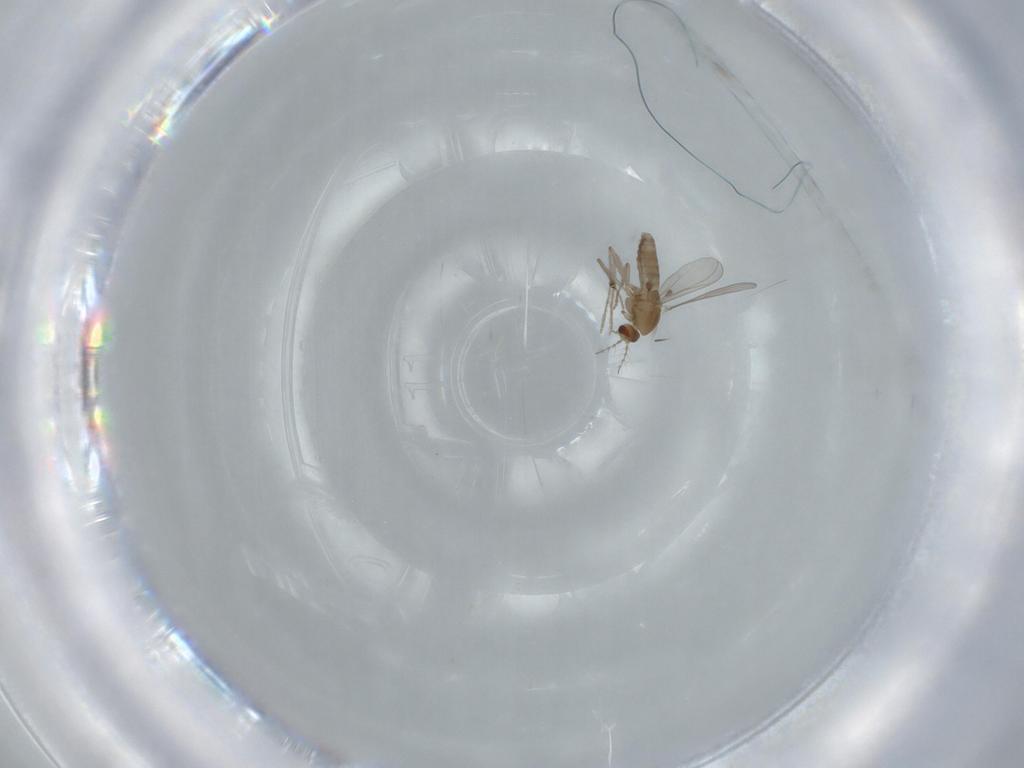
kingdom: Animalia
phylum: Arthropoda
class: Insecta
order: Diptera
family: Chironomidae
